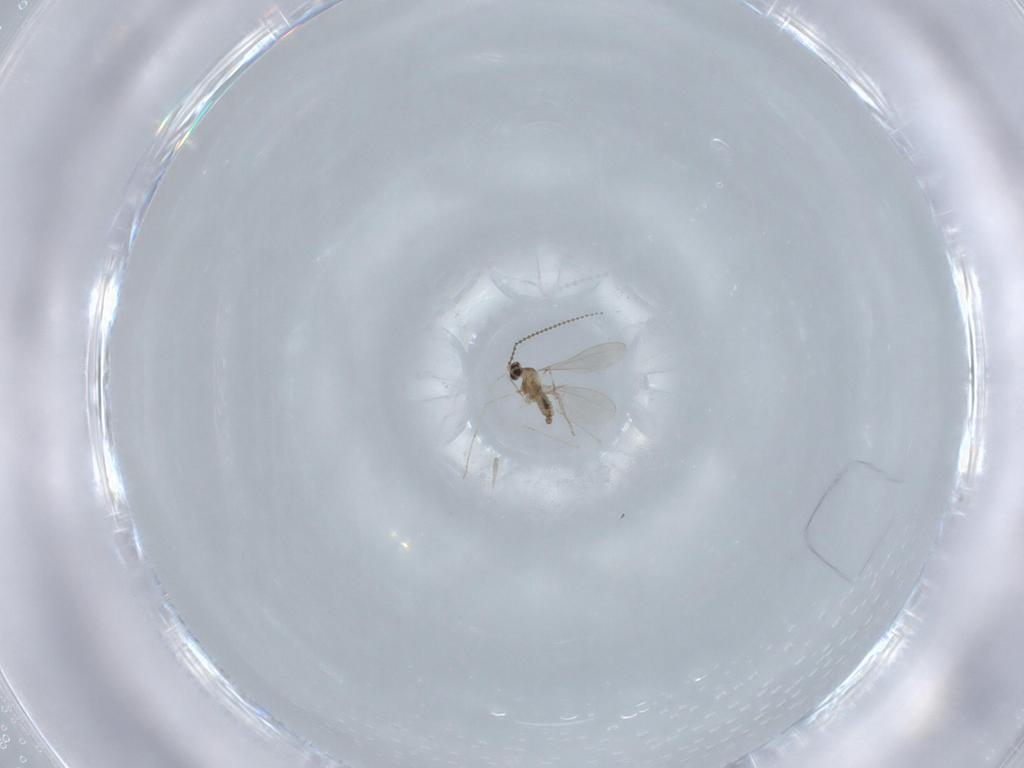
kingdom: Animalia
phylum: Arthropoda
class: Insecta
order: Diptera
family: Cecidomyiidae
